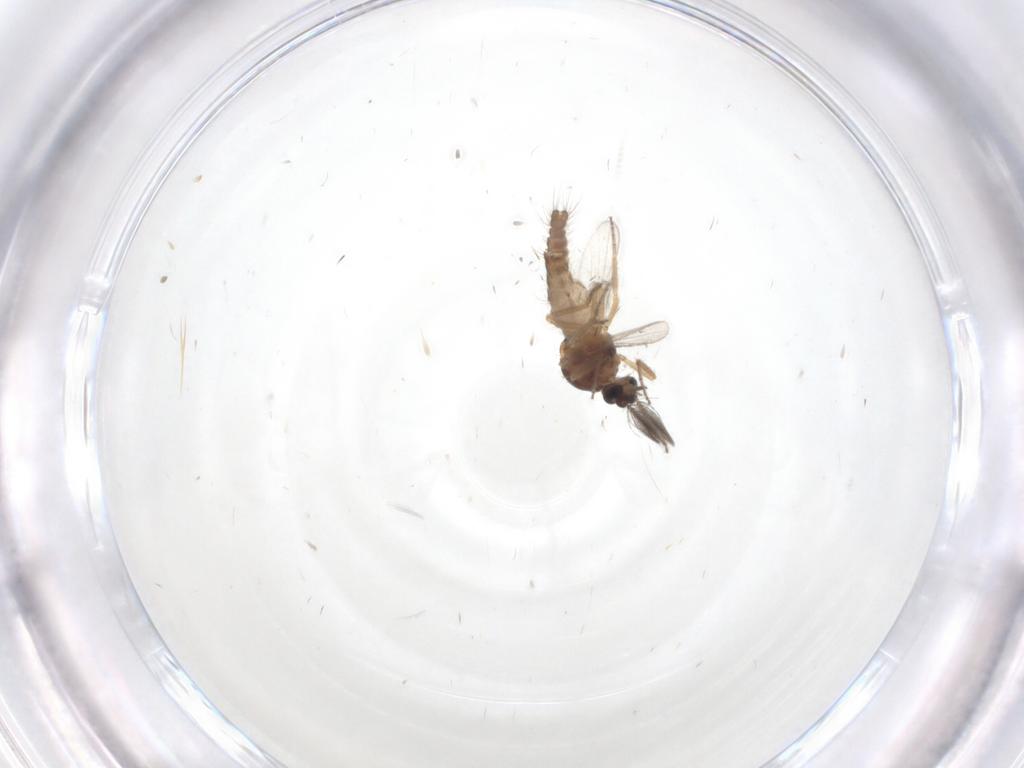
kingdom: Animalia
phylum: Arthropoda
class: Insecta
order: Diptera
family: Ceratopogonidae
